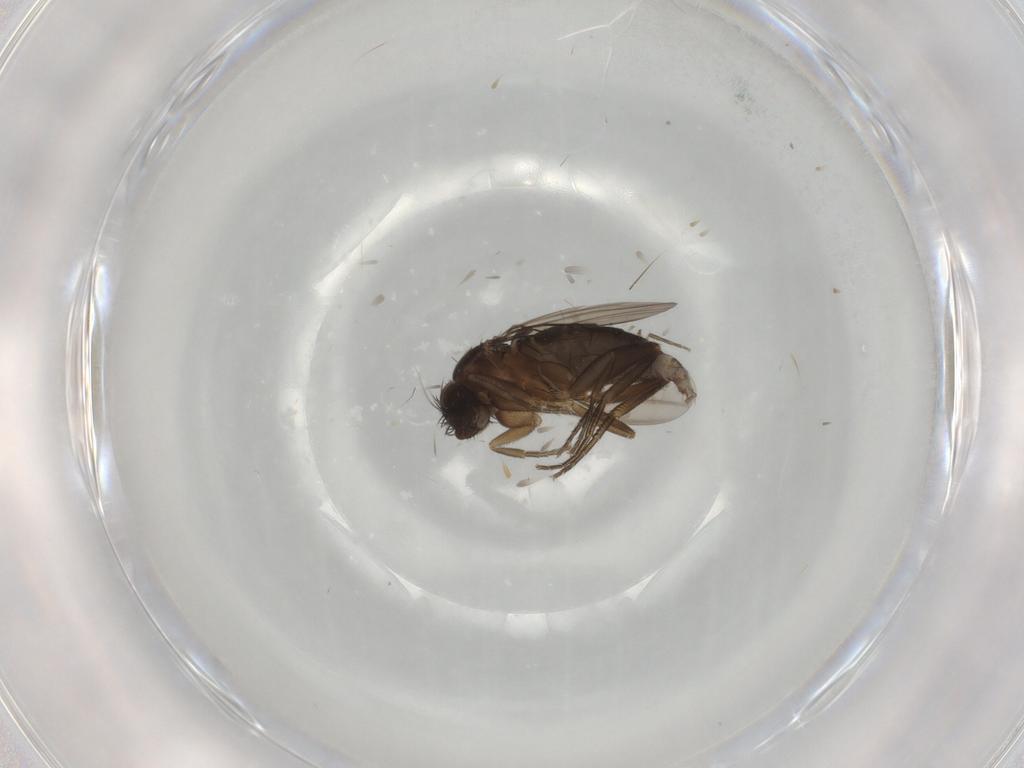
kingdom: Animalia
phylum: Arthropoda
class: Insecta
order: Diptera
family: Phoridae
